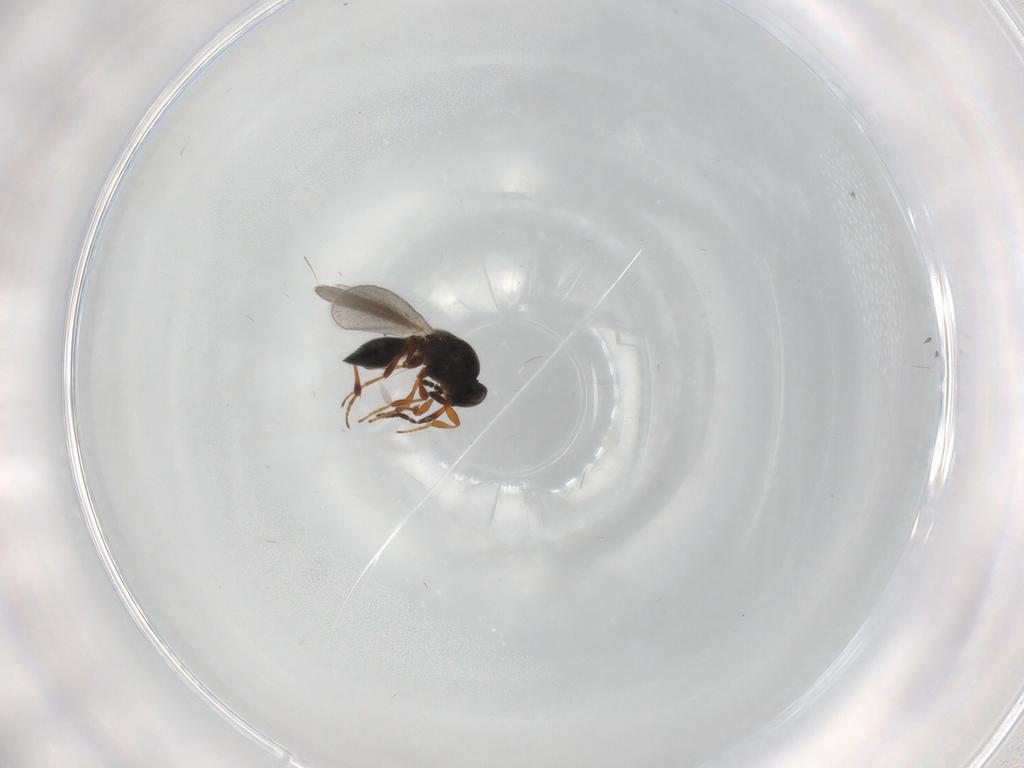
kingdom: Animalia
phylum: Arthropoda
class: Insecta
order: Hymenoptera
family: Platygastridae
